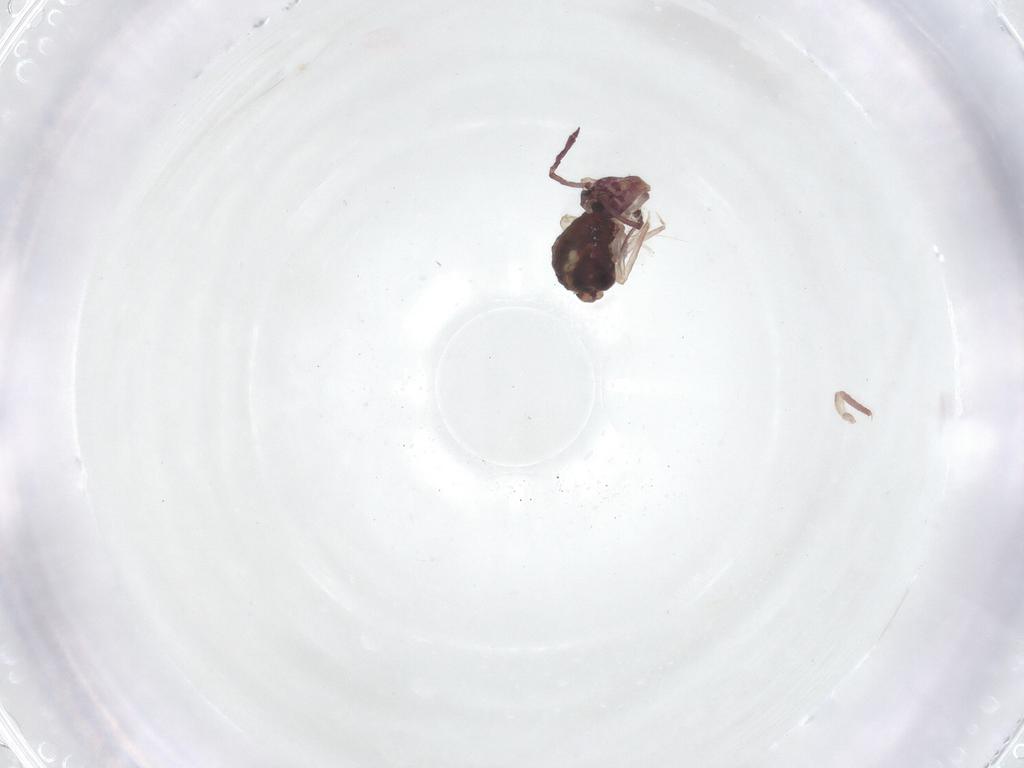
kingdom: Animalia
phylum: Arthropoda
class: Collembola
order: Symphypleona
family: Dicyrtomidae
